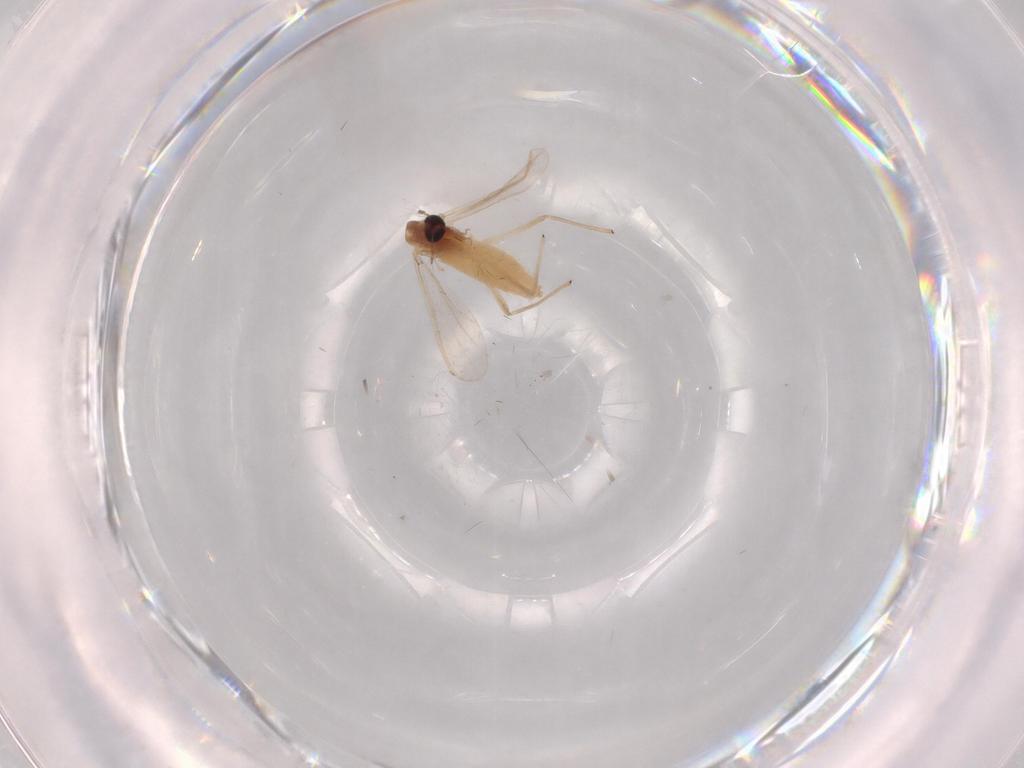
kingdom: Animalia
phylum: Arthropoda
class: Insecta
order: Diptera
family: Chironomidae
